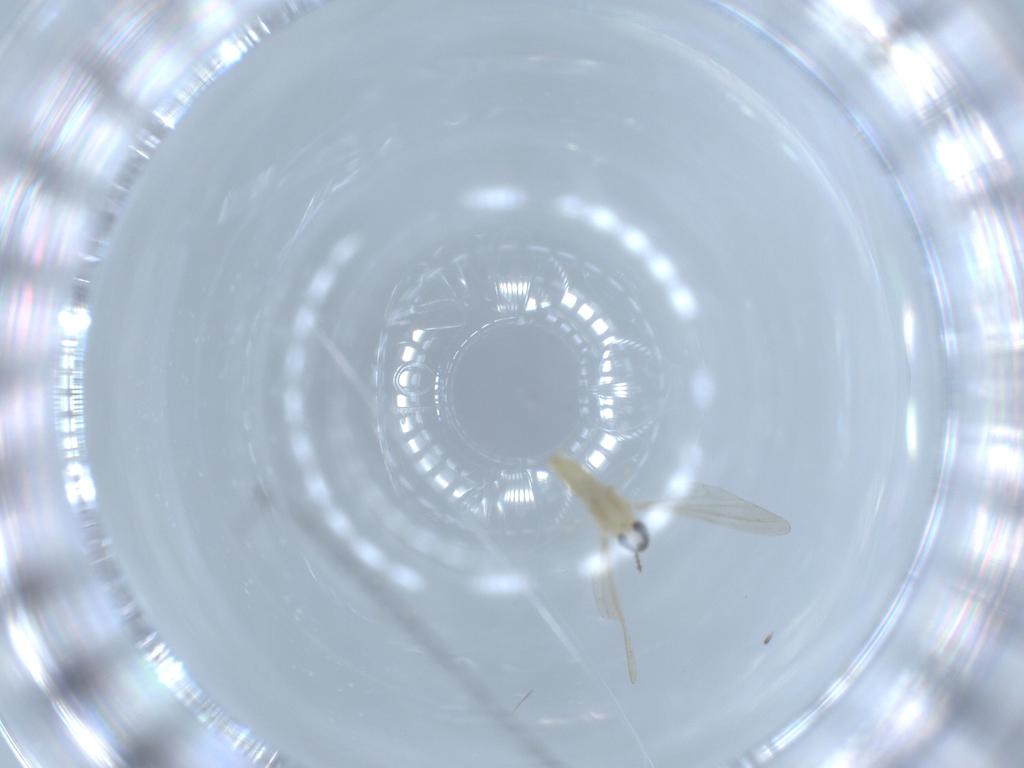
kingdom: Animalia
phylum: Arthropoda
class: Insecta
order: Diptera
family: Cecidomyiidae
